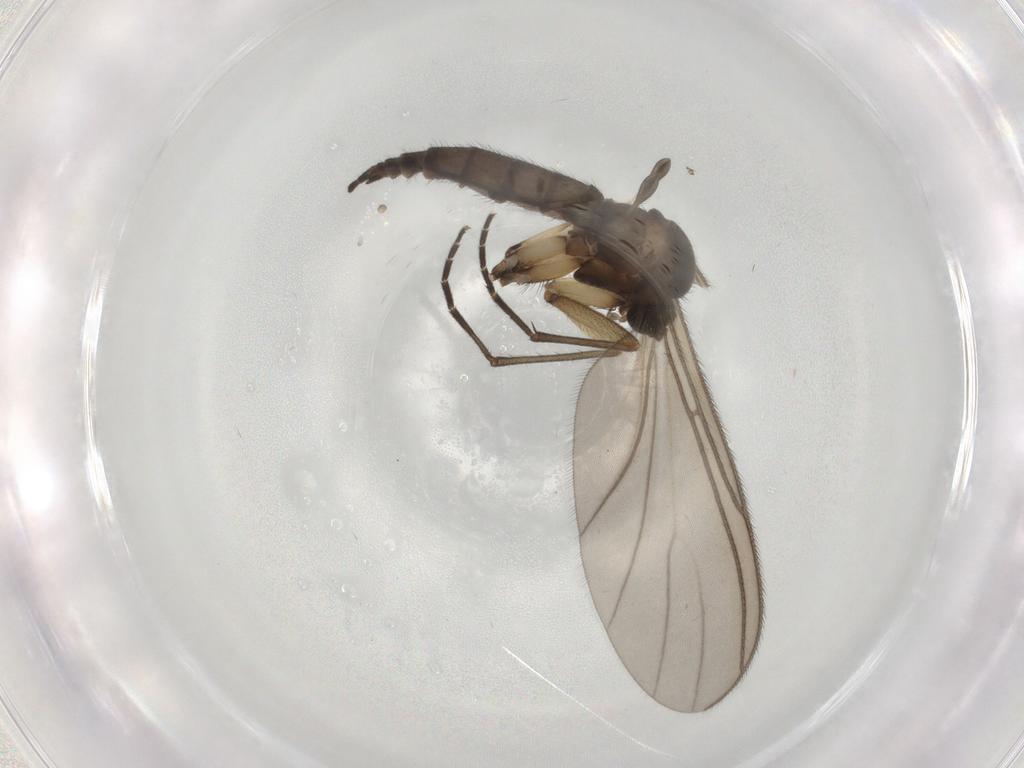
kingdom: Animalia
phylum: Arthropoda
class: Insecta
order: Diptera
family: Sciaridae
